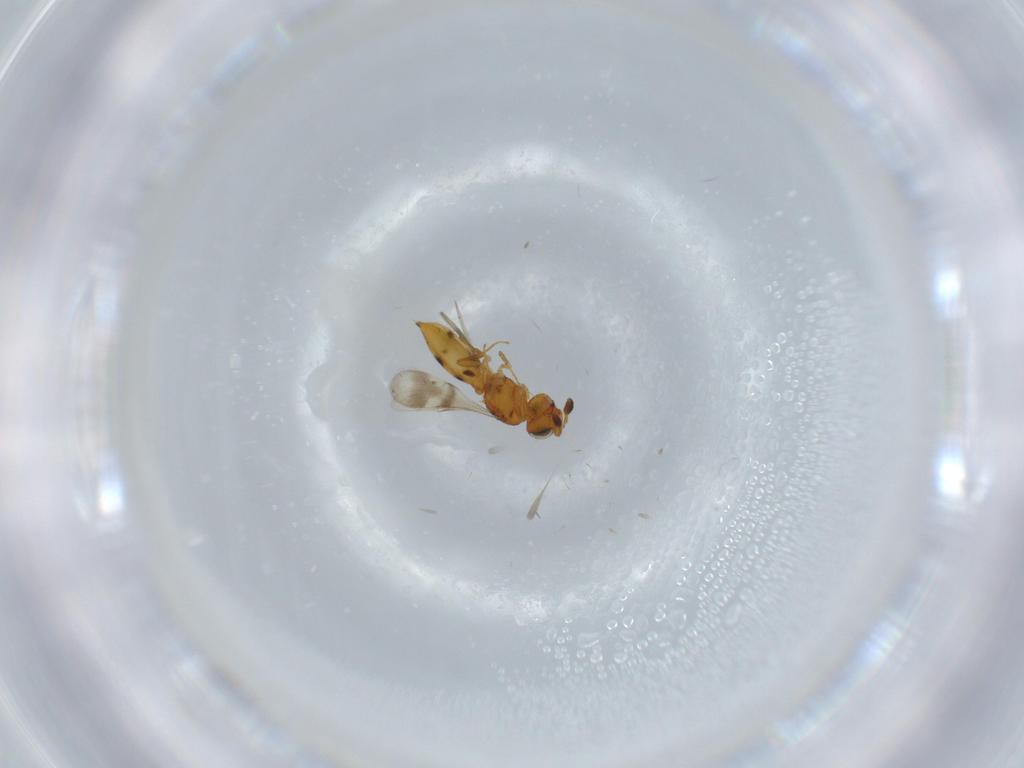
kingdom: Animalia
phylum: Arthropoda
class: Insecta
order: Hymenoptera
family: Scelionidae
